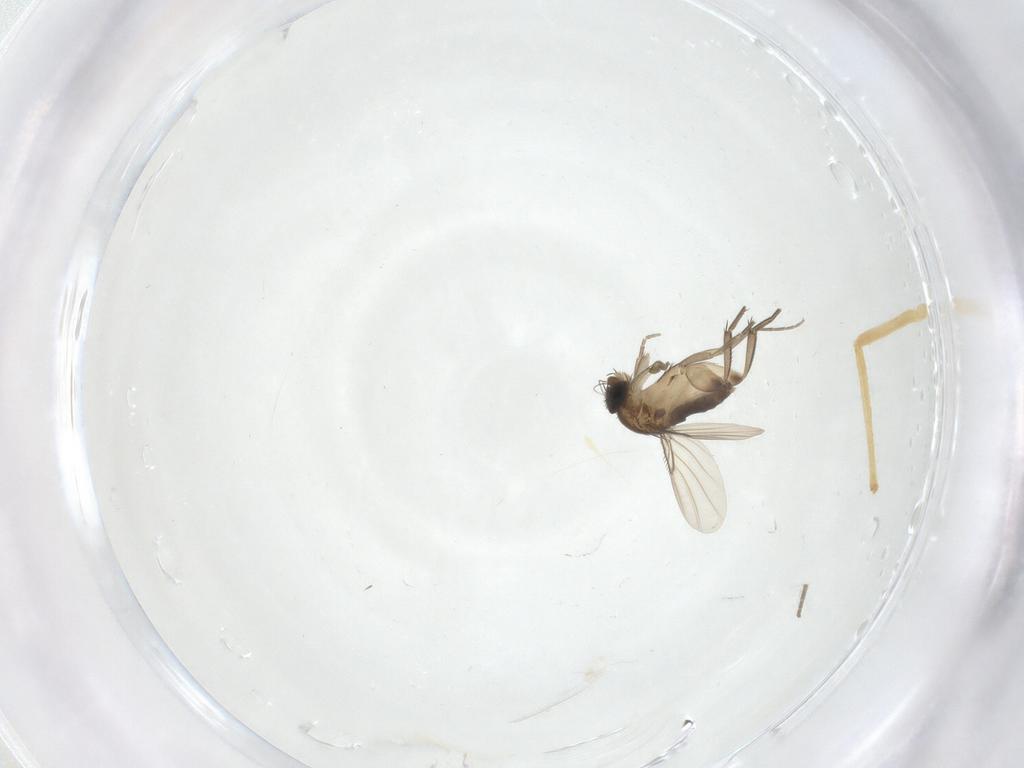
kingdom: Animalia
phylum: Arthropoda
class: Insecta
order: Diptera
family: Phoridae
